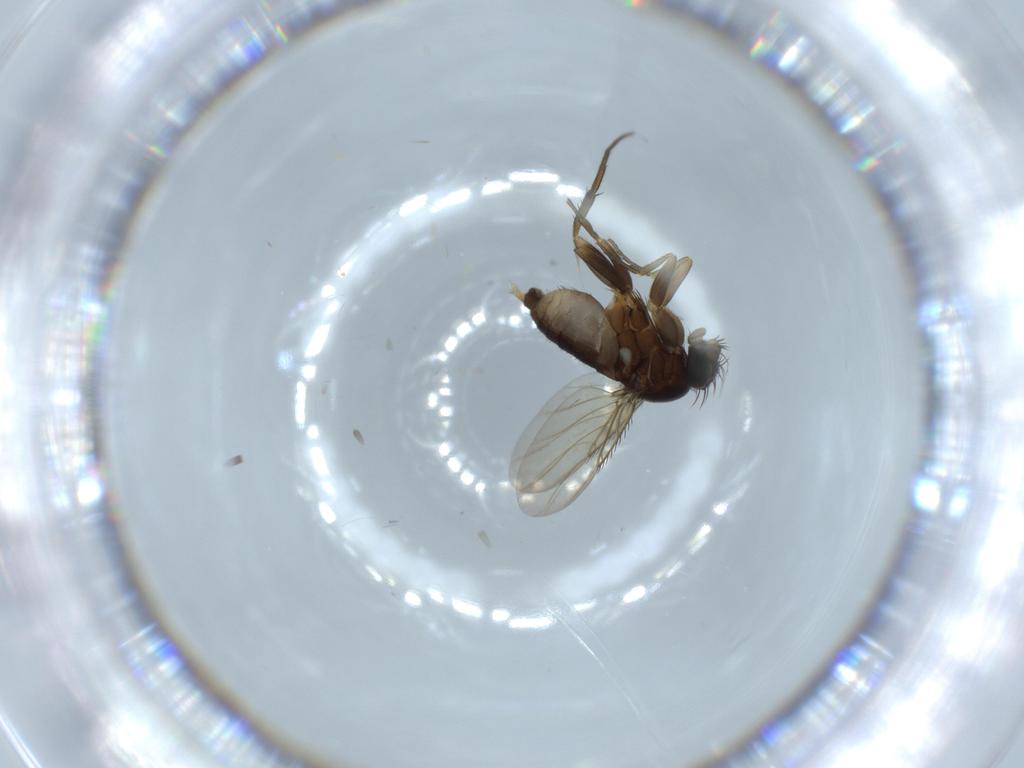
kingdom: Animalia
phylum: Arthropoda
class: Insecta
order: Diptera
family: Phoridae
